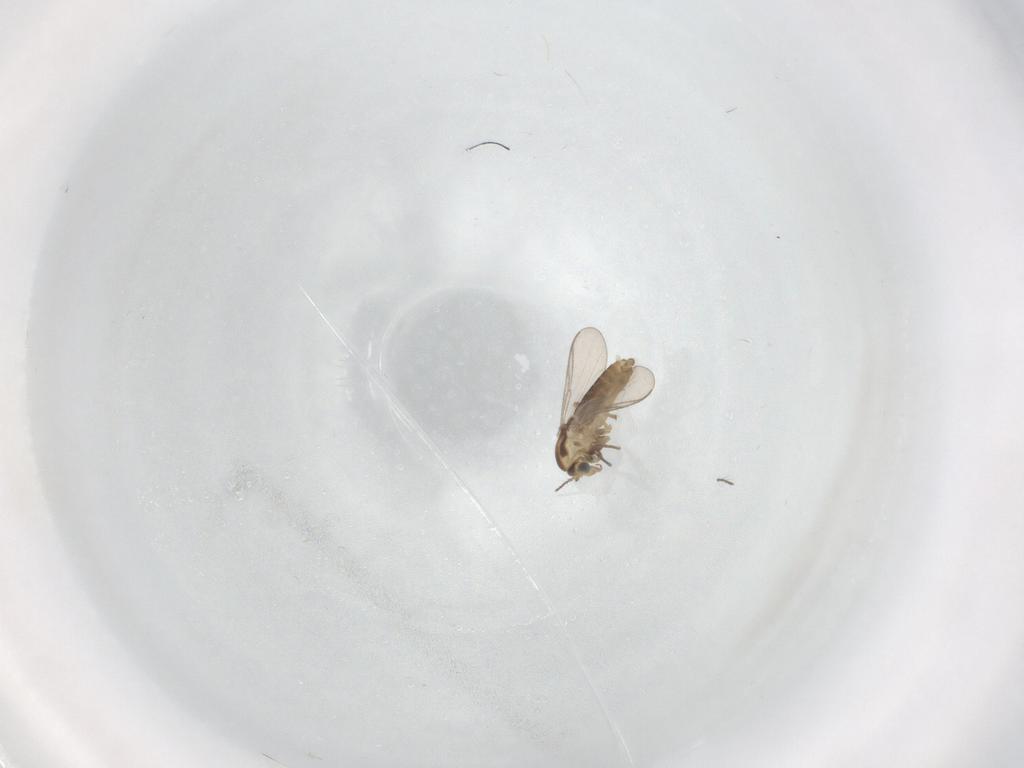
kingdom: Animalia
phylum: Arthropoda
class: Insecta
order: Diptera
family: Chironomidae
